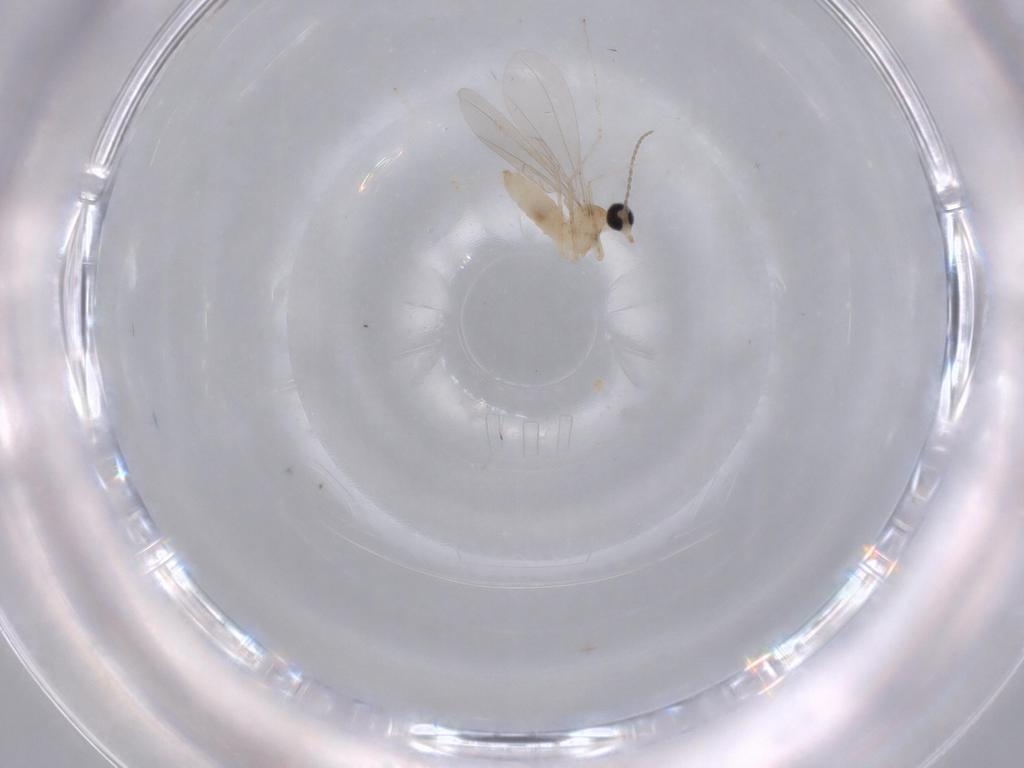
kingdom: Animalia
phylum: Arthropoda
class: Insecta
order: Diptera
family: Cecidomyiidae
